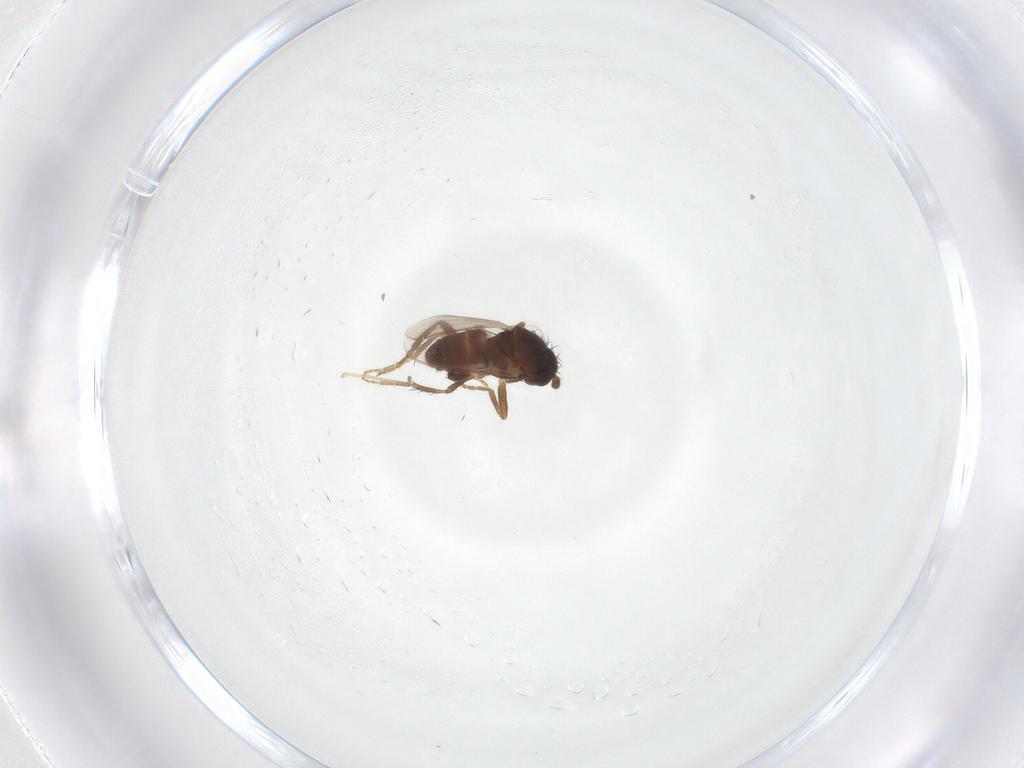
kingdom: Animalia
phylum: Arthropoda
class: Insecta
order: Diptera
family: Sphaeroceridae
